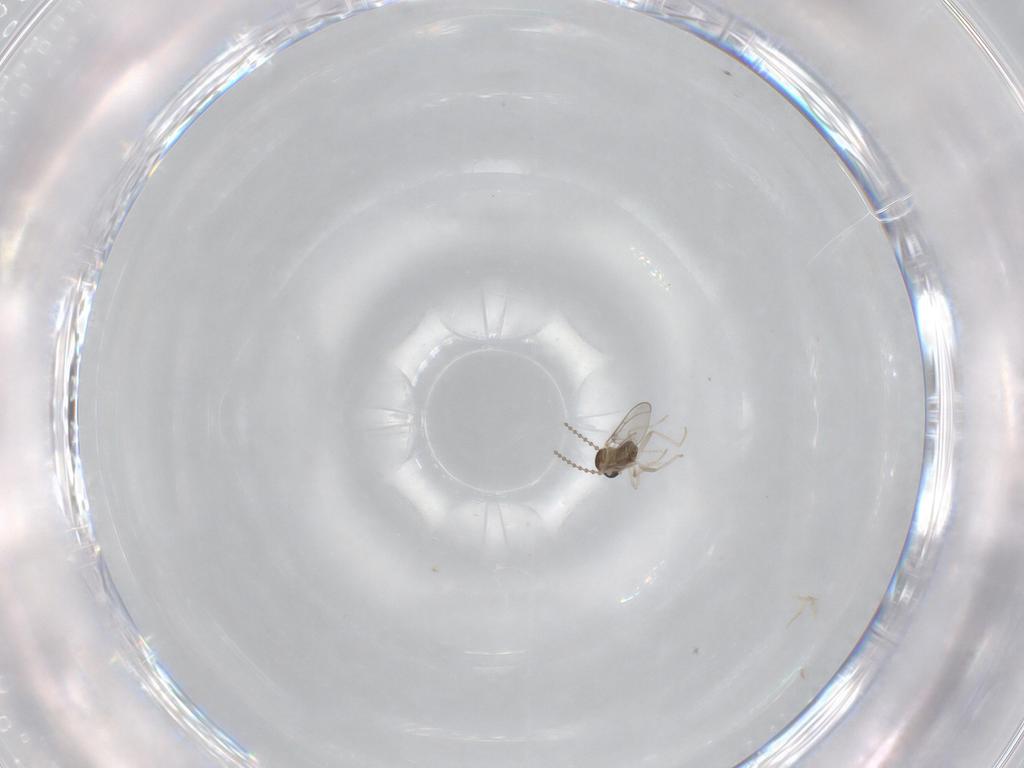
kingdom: Animalia
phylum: Arthropoda
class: Insecta
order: Diptera
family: Cecidomyiidae
